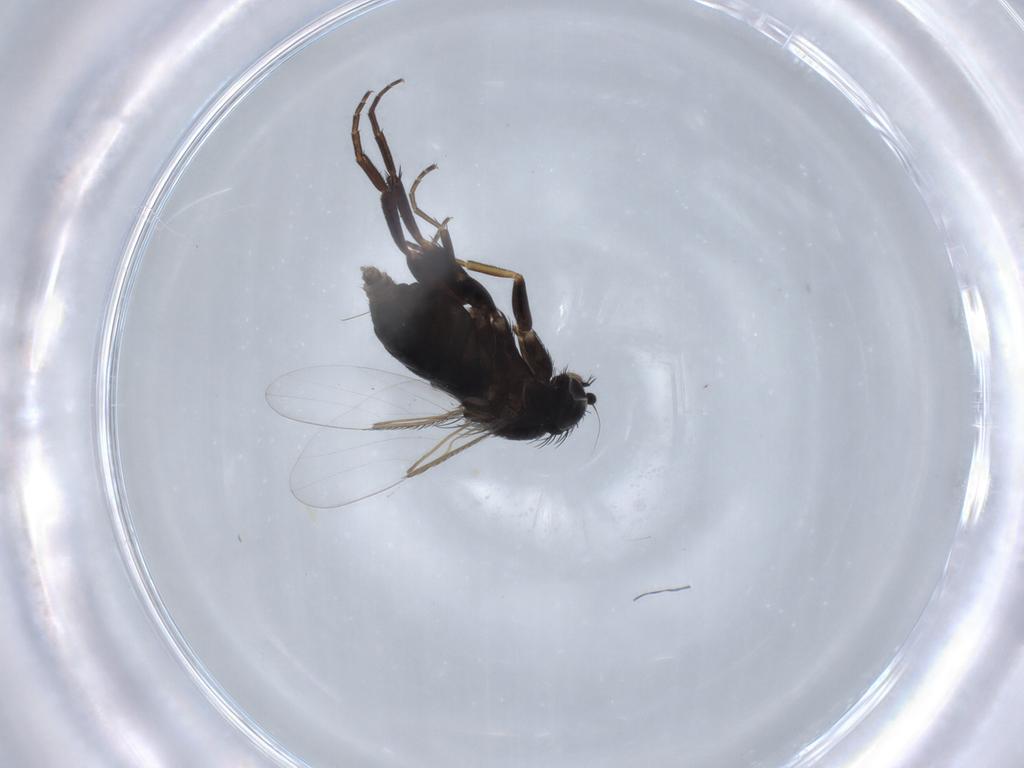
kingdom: Animalia
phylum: Arthropoda
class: Insecta
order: Diptera
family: Phoridae
